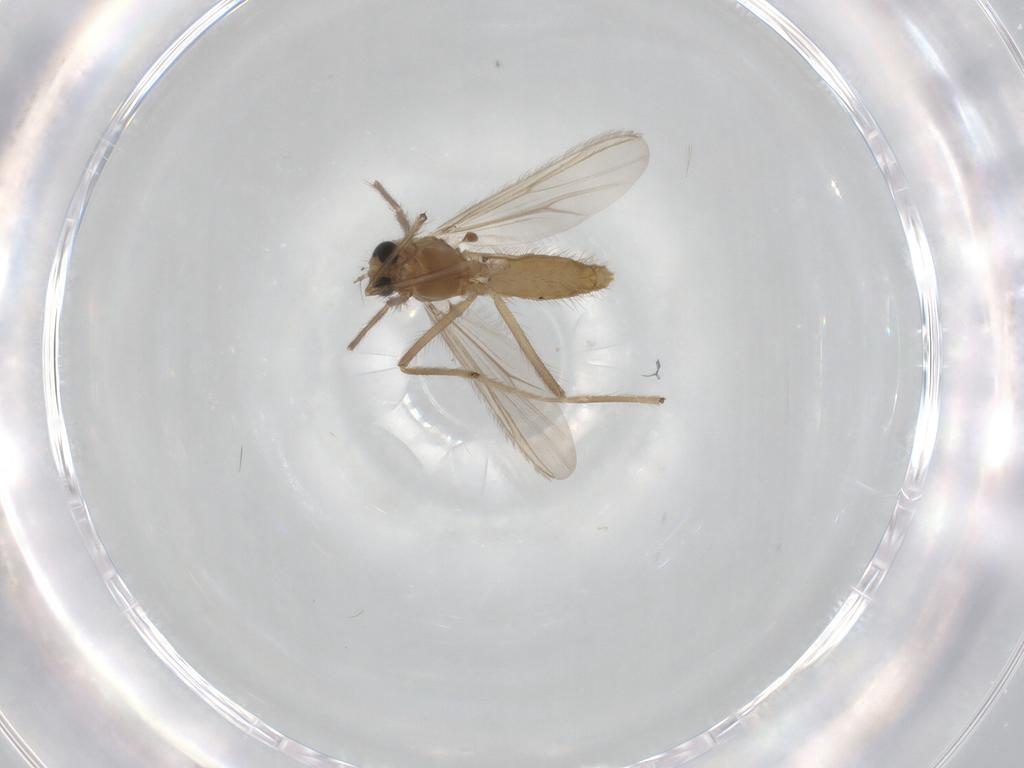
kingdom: Animalia
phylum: Arthropoda
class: Insecta
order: Diptera
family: Chironomidae
